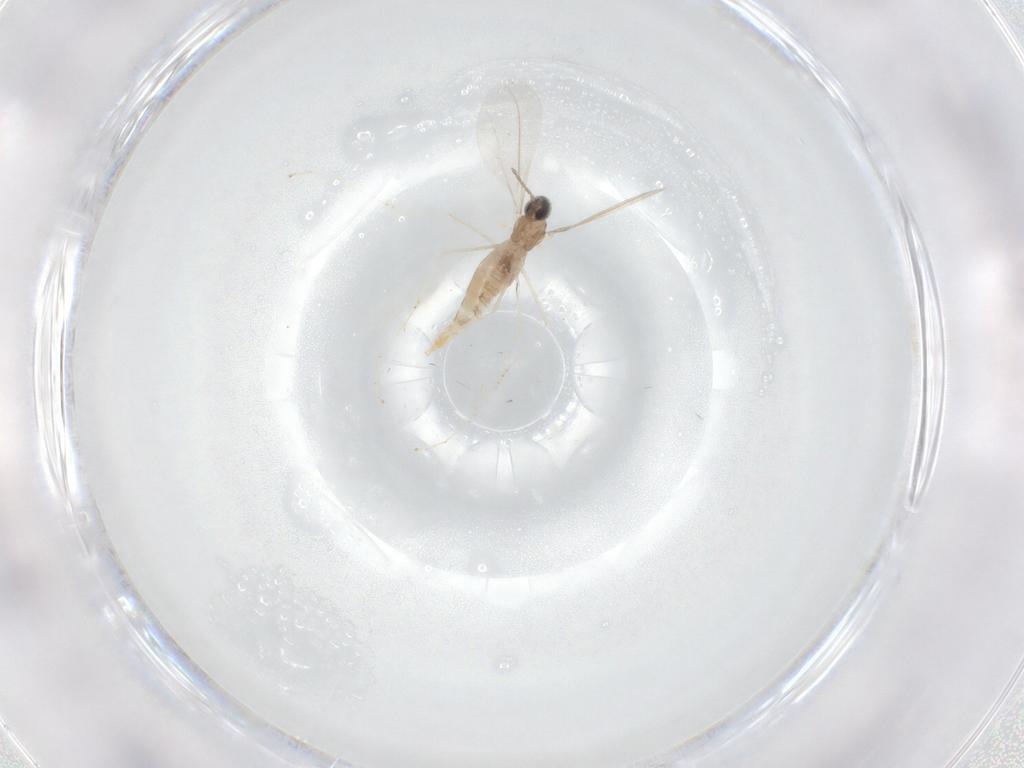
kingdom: Animalia
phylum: Arthropoda
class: Insecta
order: Diptera
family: Cecidomyiidae
